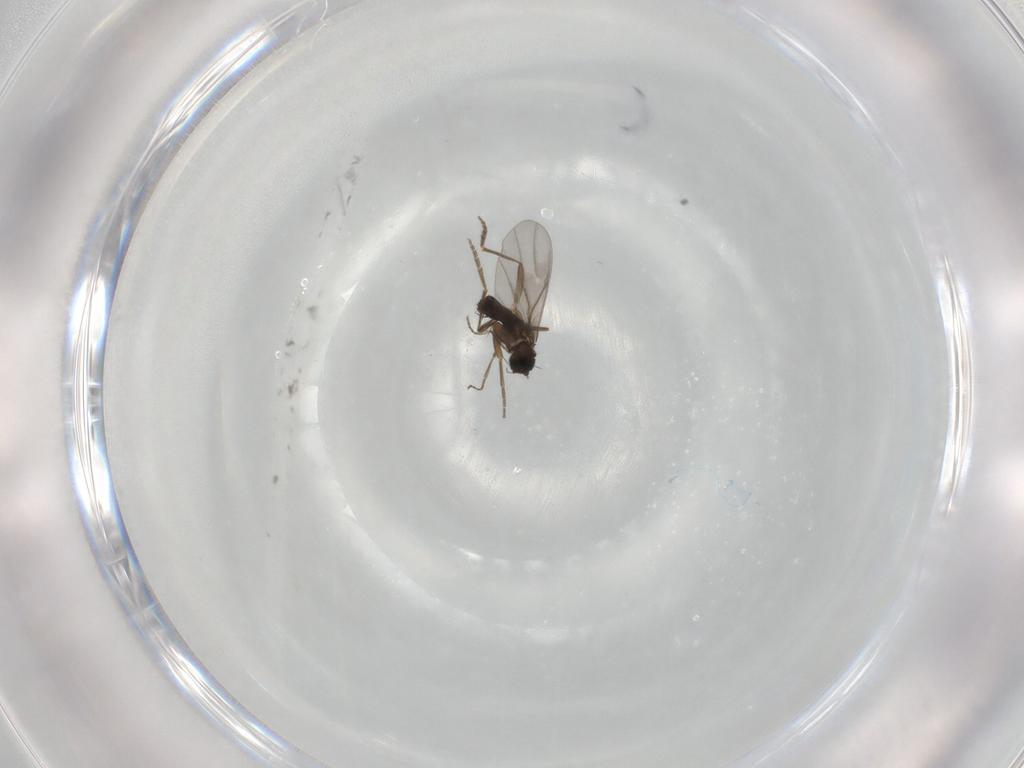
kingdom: Animalia
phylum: Arthropoda
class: Insecta
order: Diptera
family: Phoridae
